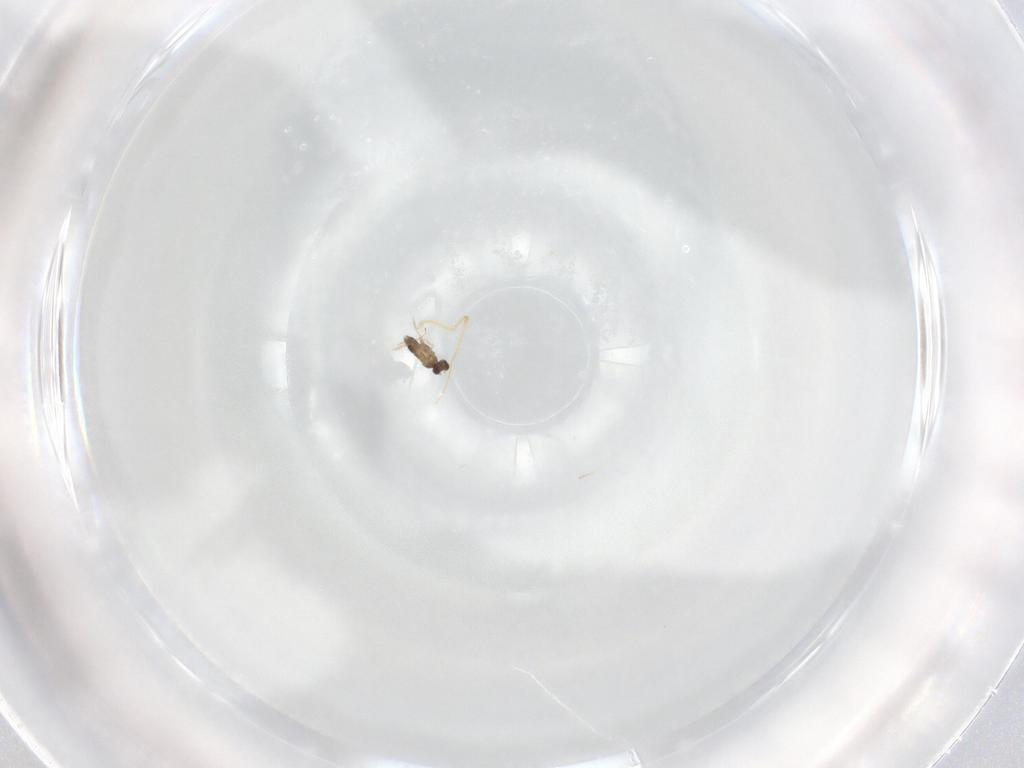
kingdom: Animalia
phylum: Arthropoda
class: Insecta
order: Hymenoptera
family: Mymaridae
